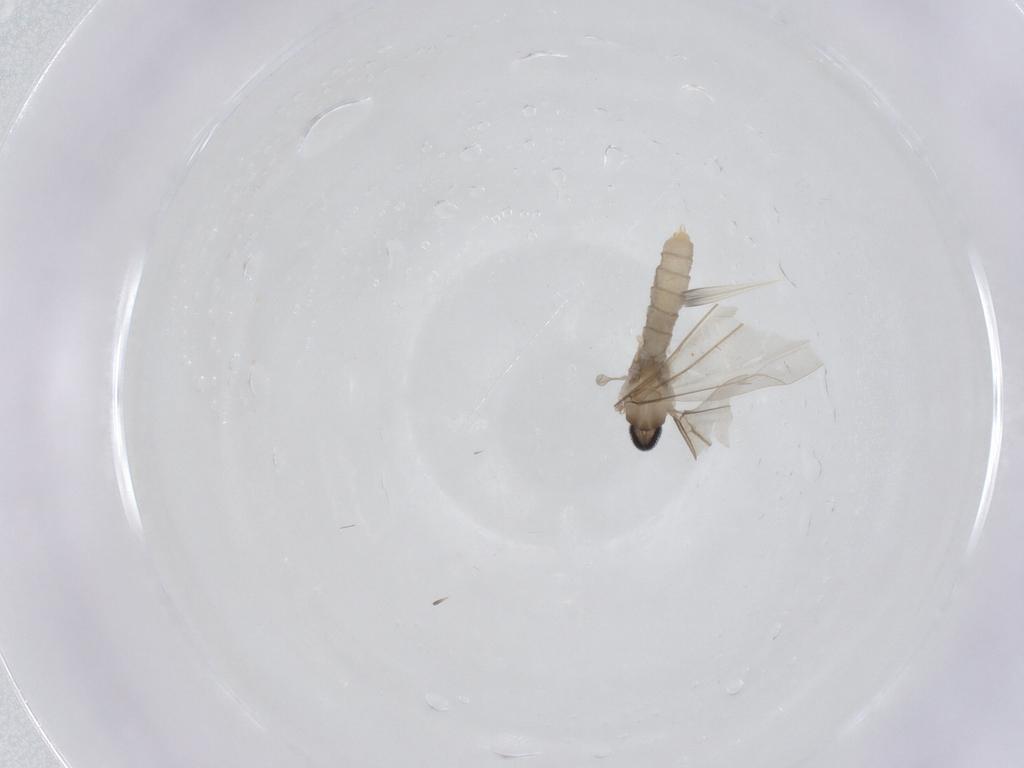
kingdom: Animalia
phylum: Arthropoda
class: Insecta
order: Diptera
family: Cecidomyiidae
